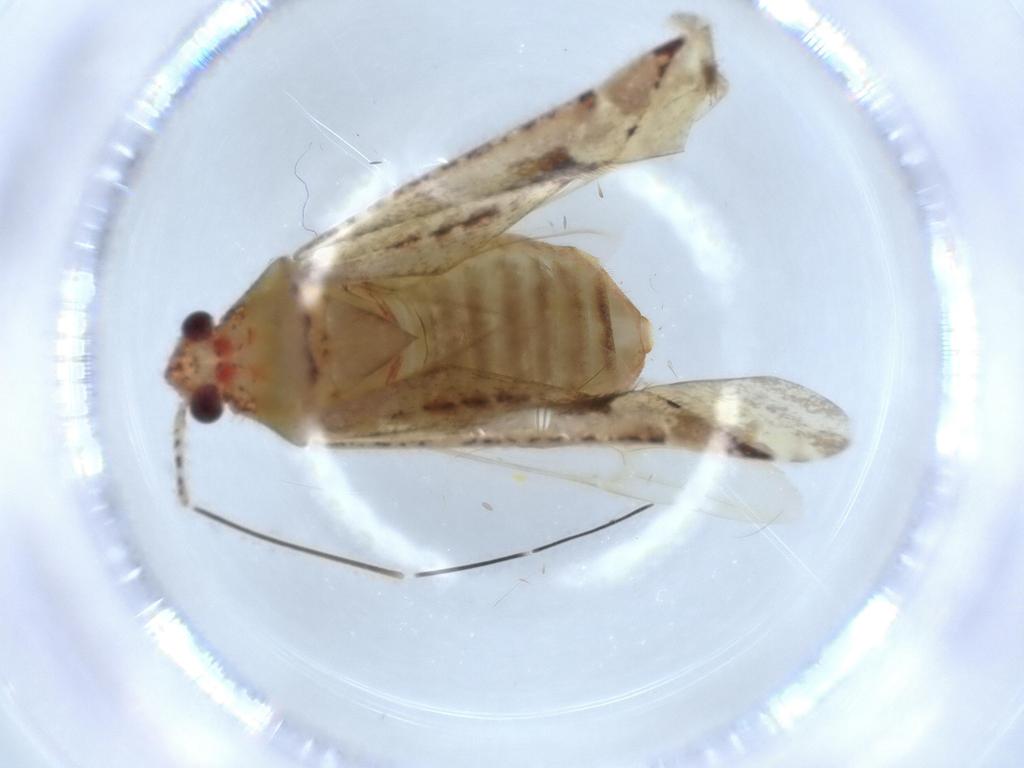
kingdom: Animalia
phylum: Arthropoda
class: Insecta
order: Hemiptera
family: Miridae
